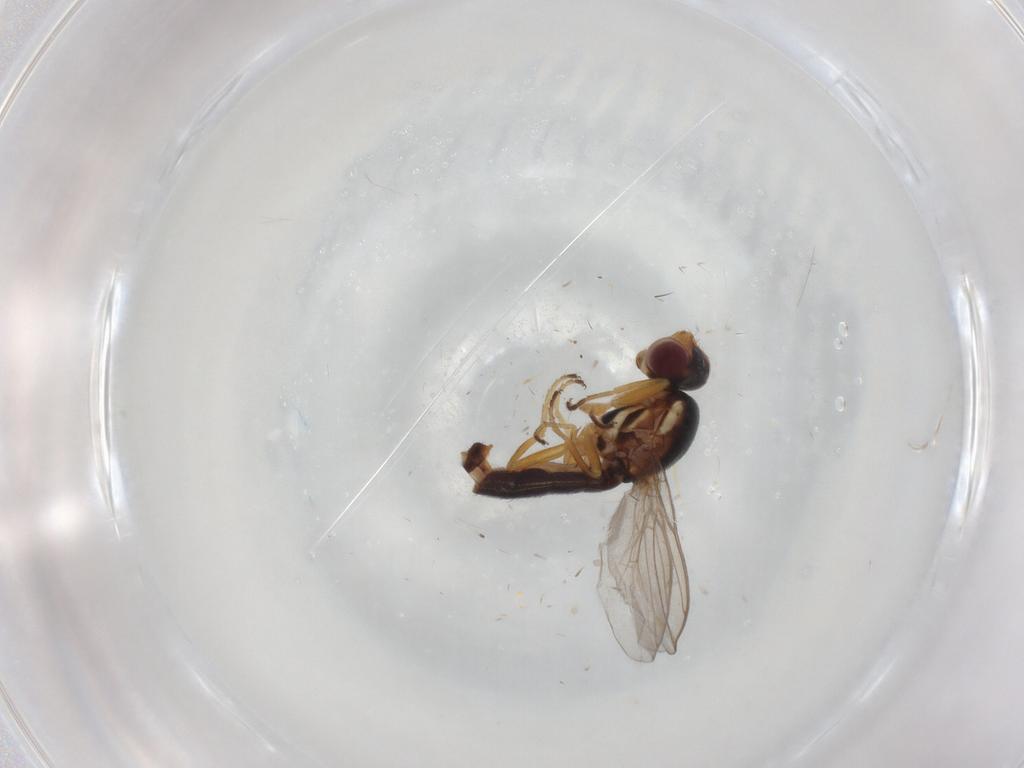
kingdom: Animalia
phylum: Arthropoda
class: Insecta
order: Diptera
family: Chloropidae
